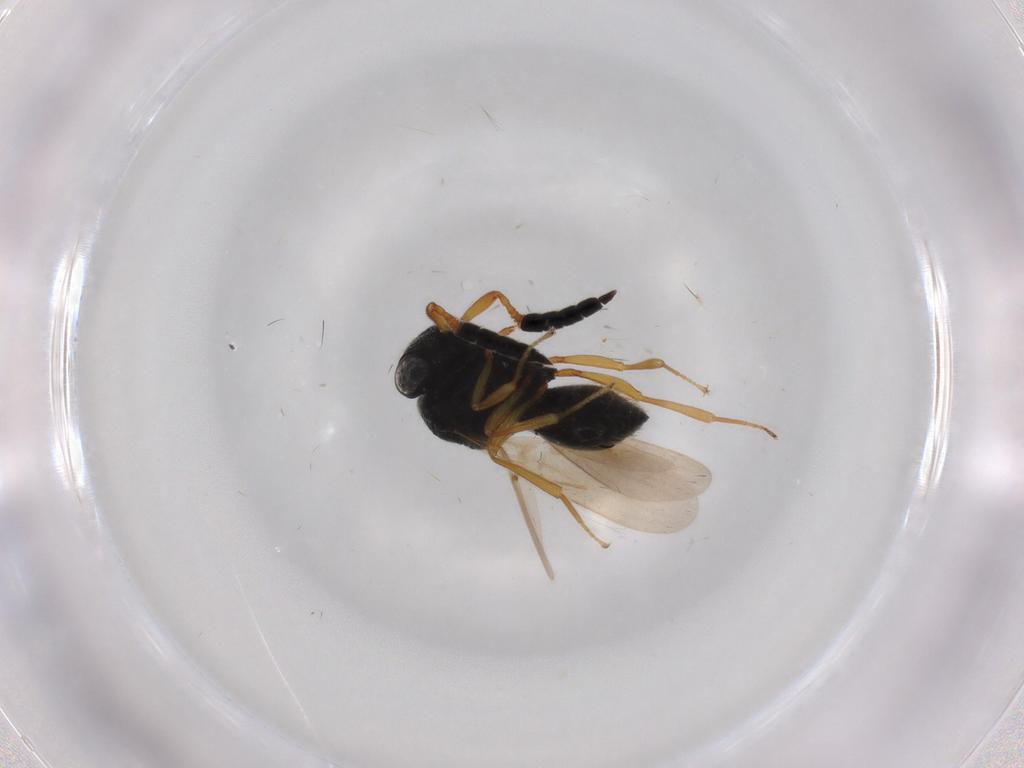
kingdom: Animalia
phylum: Arthropoda
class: Insecta
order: Hymenoptera
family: Scelionidae
